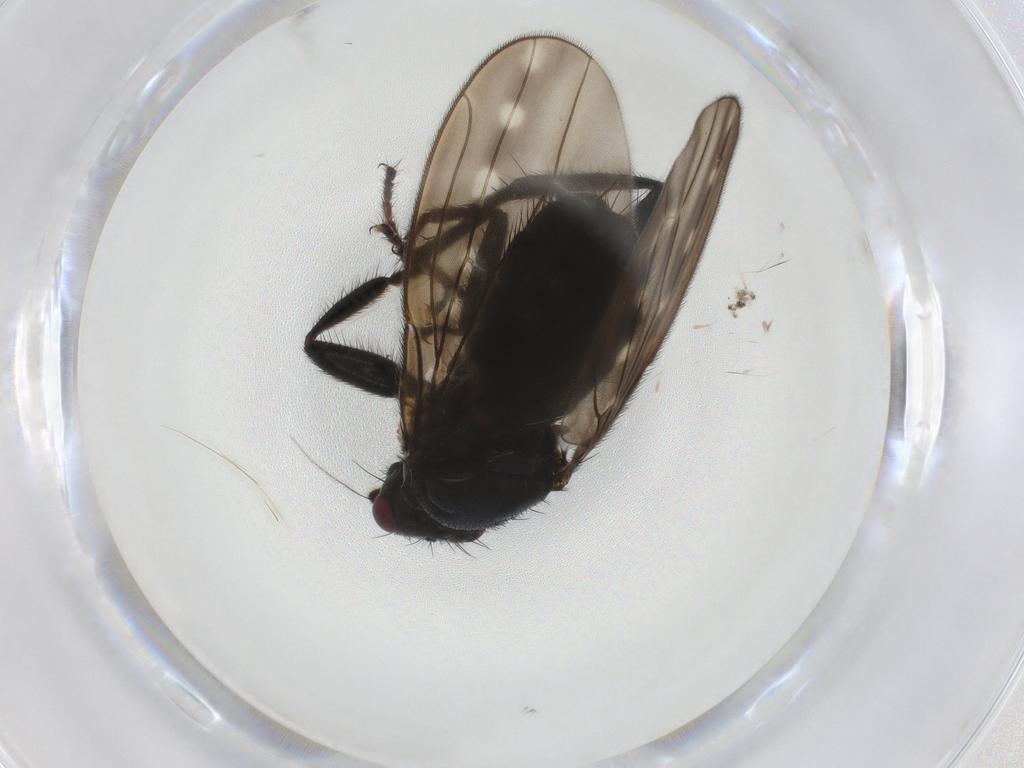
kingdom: Animalia
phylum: Arthropoda
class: Insecta
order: Diptera
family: Sphaeroceridae
